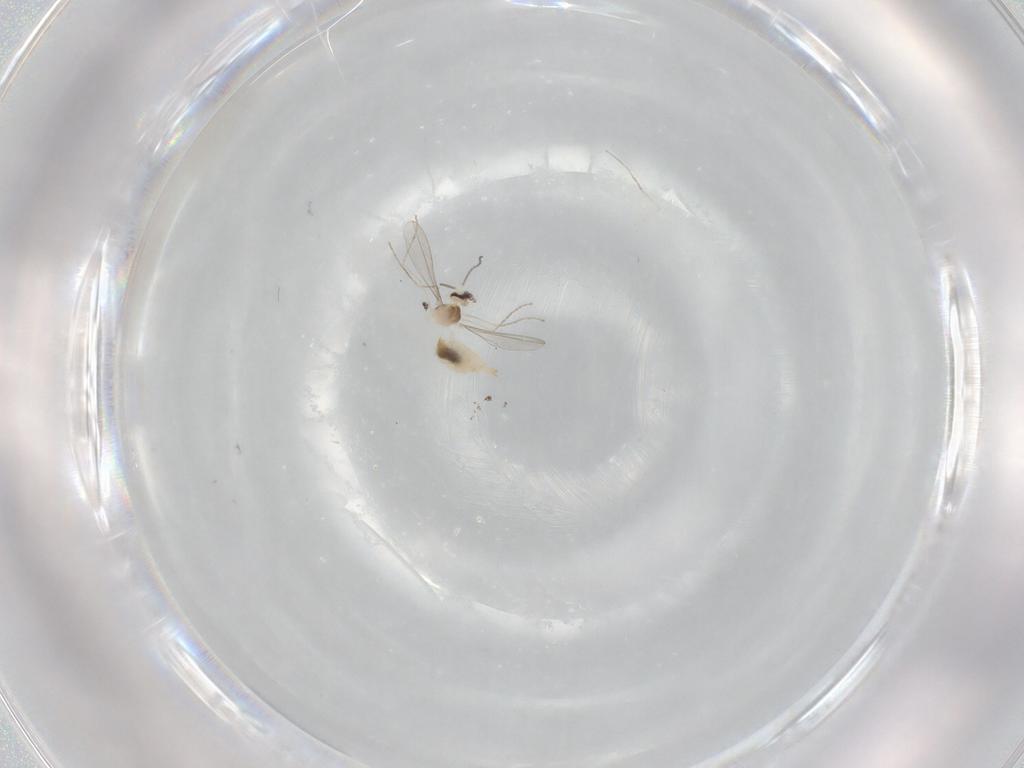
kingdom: Animalia
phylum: Arthropoda
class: Insecta
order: Diptera
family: Cecidomyiidae
